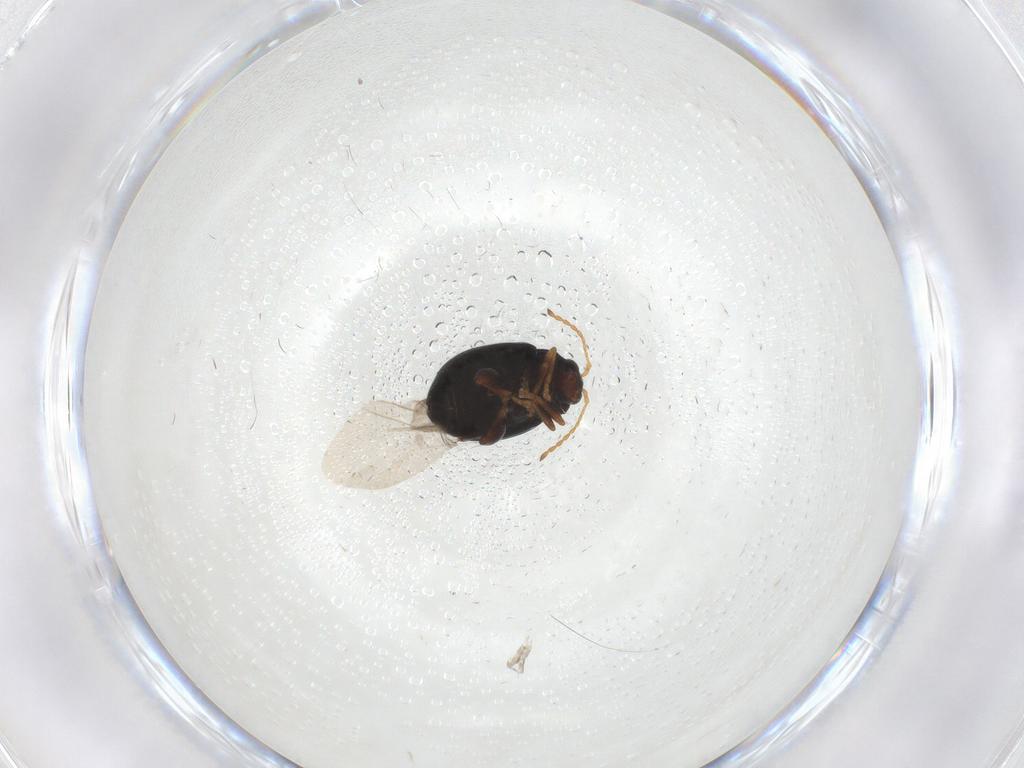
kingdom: Animalia
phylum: Arthropoda
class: Insecta
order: Coleoptera
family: Chrysomelidae
